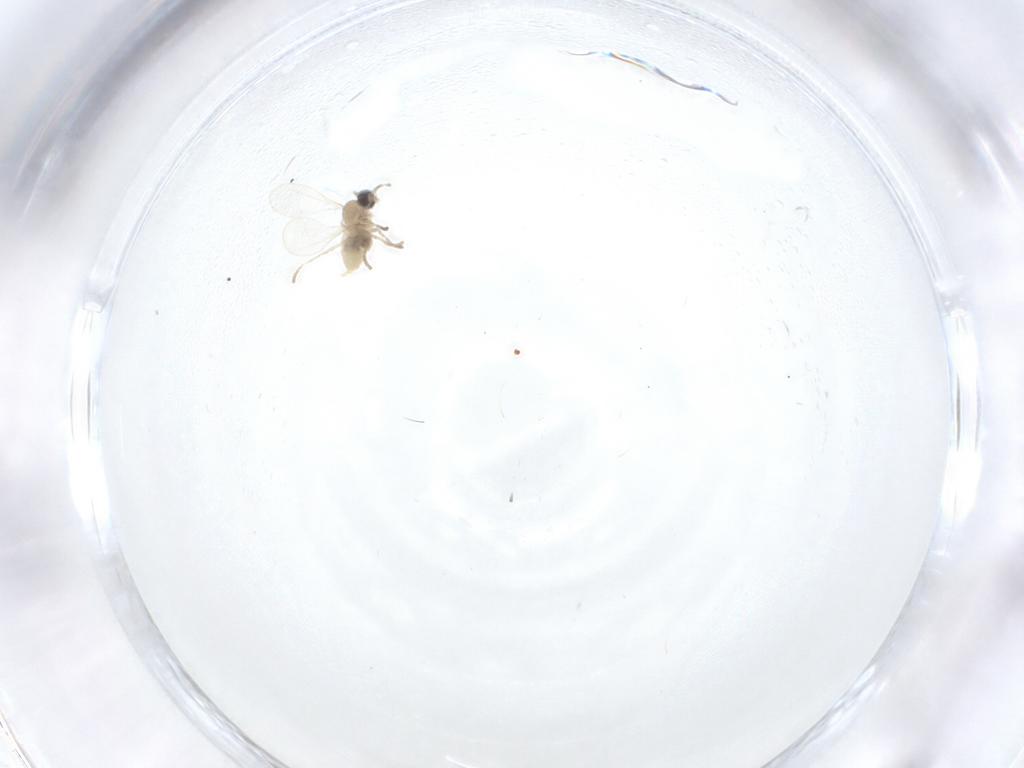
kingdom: Animalia
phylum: Arthropoda
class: Insecta
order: Diptera
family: Cecidomyiidae
